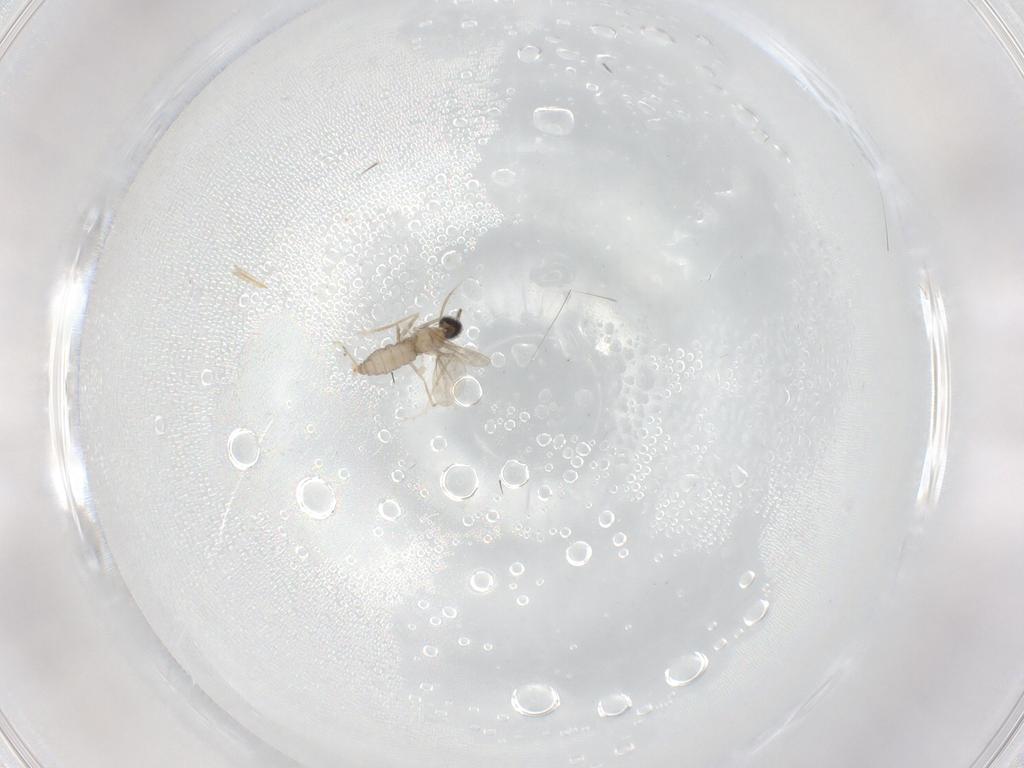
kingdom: Animalia
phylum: Arthropoda
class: Insecta
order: Diptera
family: Cecidomyiidae
